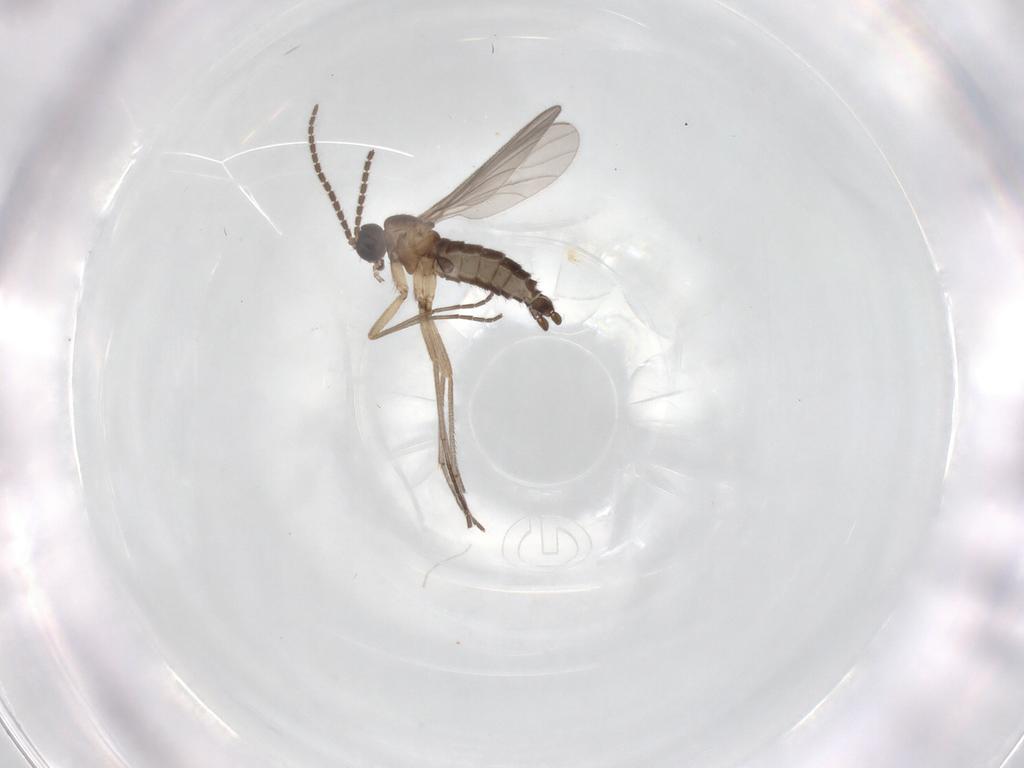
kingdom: Animalia
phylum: Arthropoda
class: Insecta
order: Diptera
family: Sciaridae
